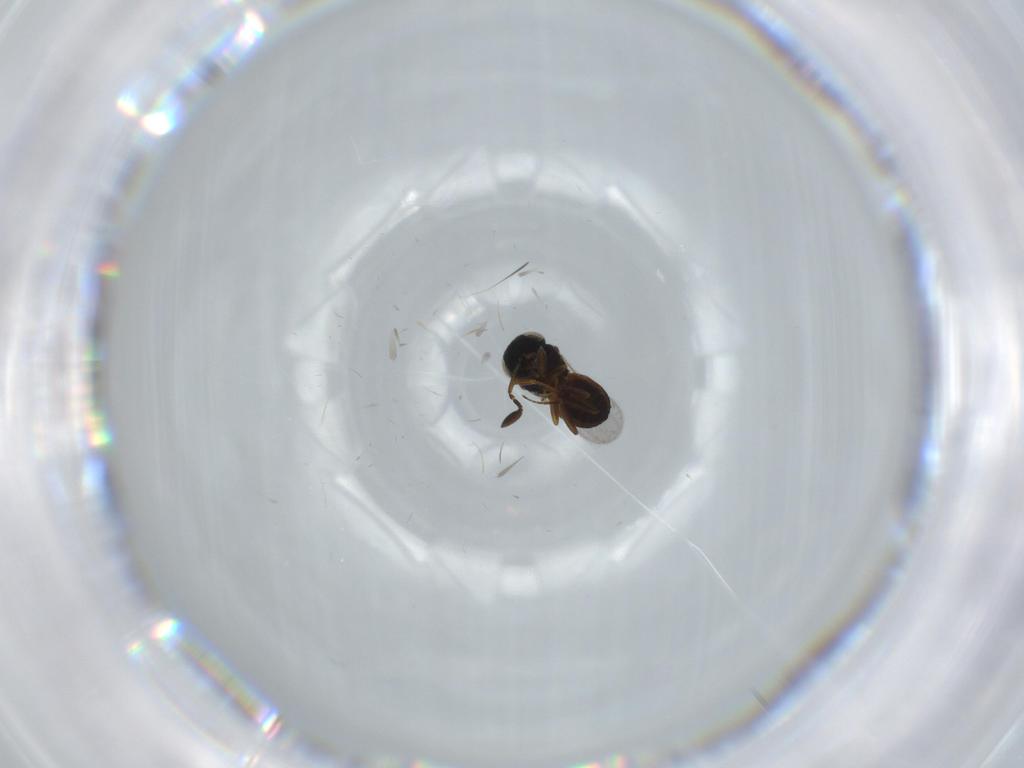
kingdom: Animalia
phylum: Arthropoda
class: Insecta
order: Hymenoptera
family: Scelionidae
